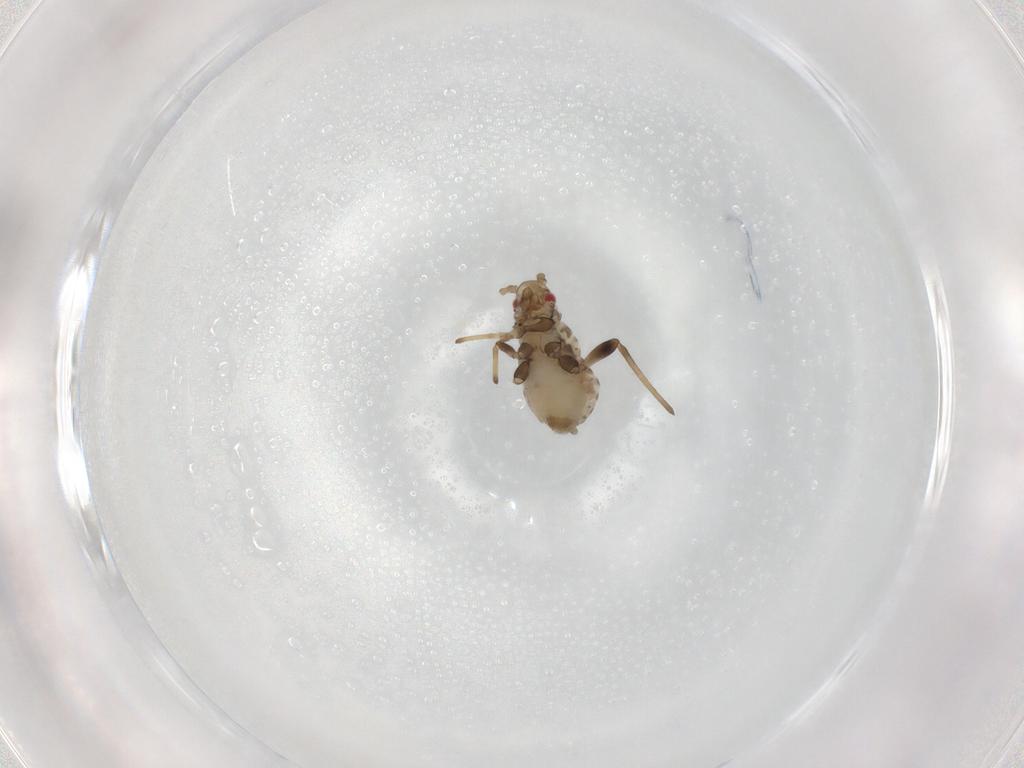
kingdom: Animalia
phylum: Arthropoda
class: Insecta
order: Hemiptera
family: Aphididae
